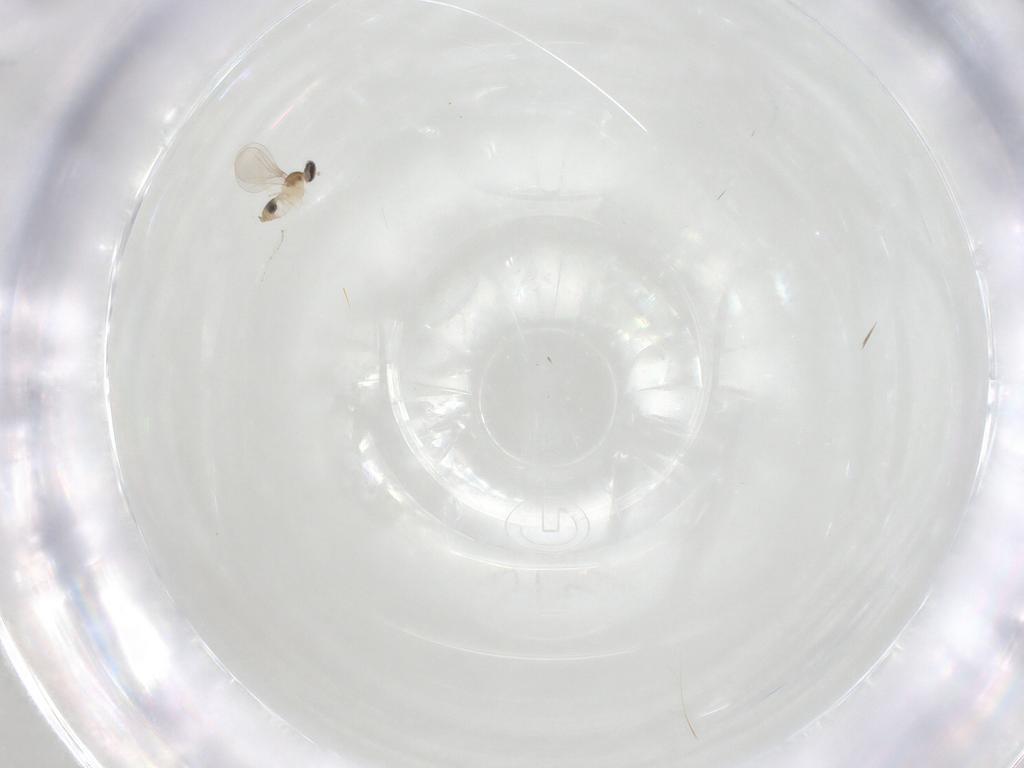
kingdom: Animalia
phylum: Arthropoda
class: Insecta
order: Diptera
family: Cecidomyiidae
